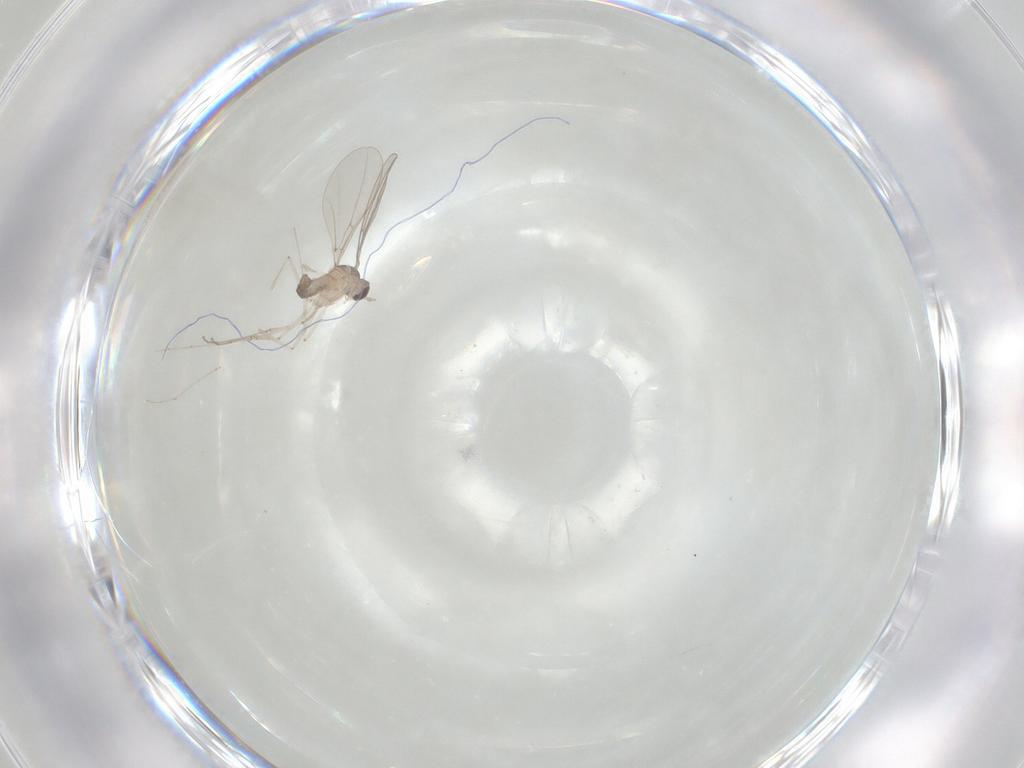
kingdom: Animalia
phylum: Arthropoda
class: Insecta
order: Diptera
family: Cecidomyiidae
